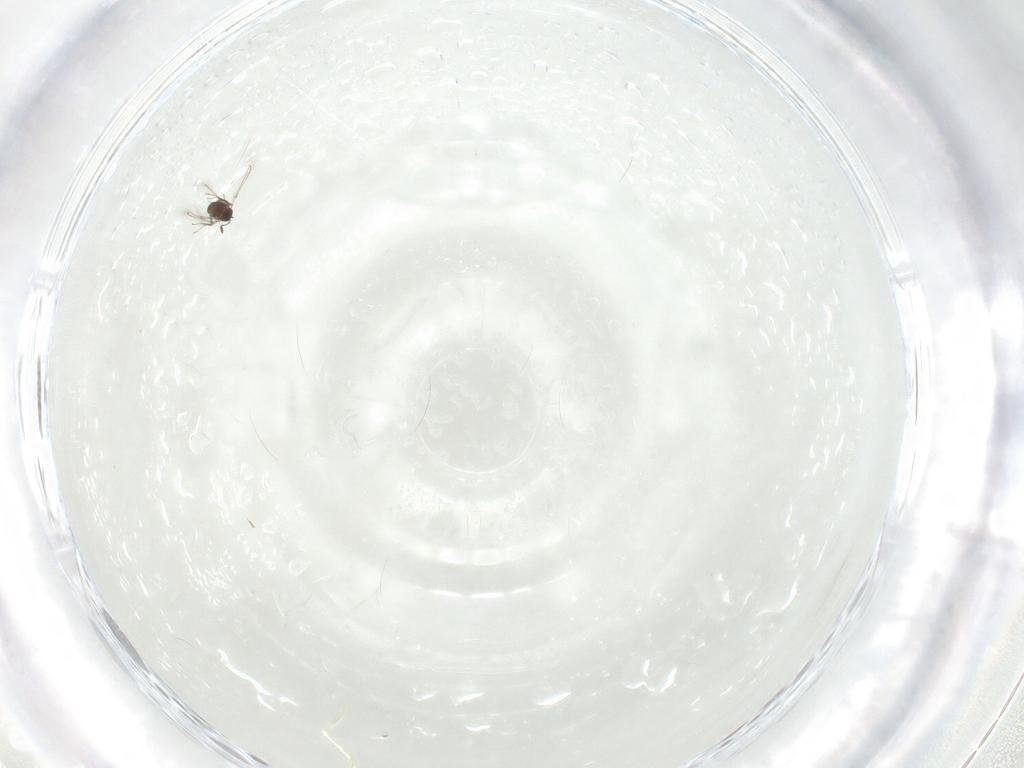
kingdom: Animalia
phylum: Arthropoda
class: Insecta
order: Hymenoptera
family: Mymaridae
